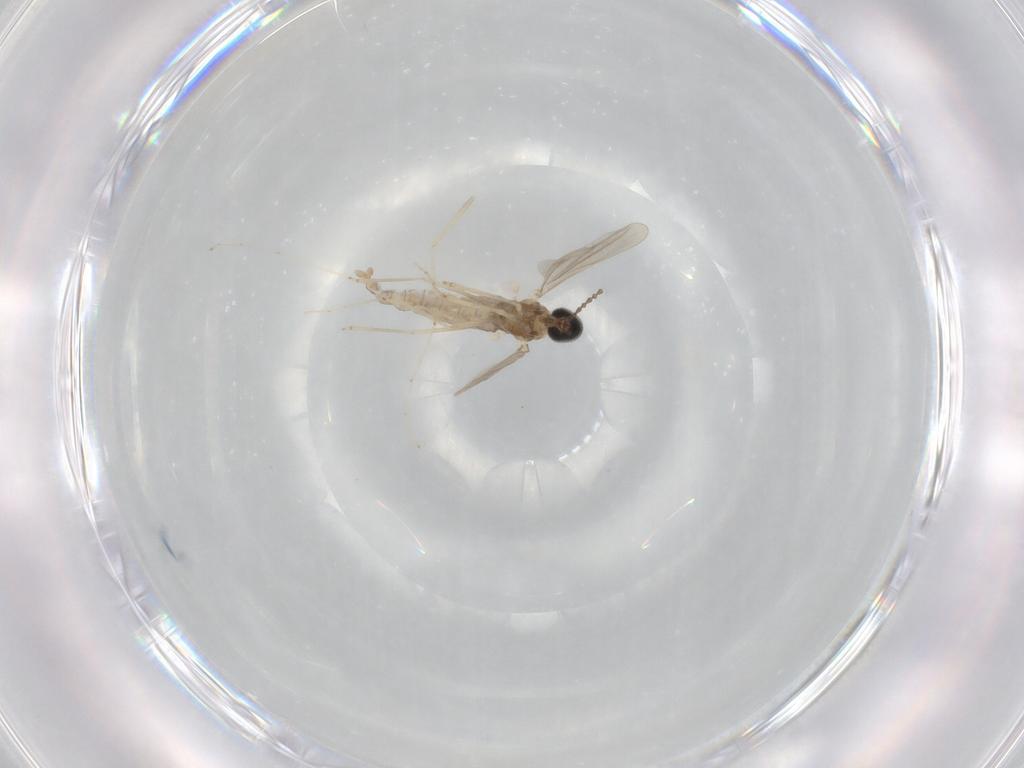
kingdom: Animalia
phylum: Arthropoda
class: Insecta
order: Diptera
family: Cecidomyiidae
